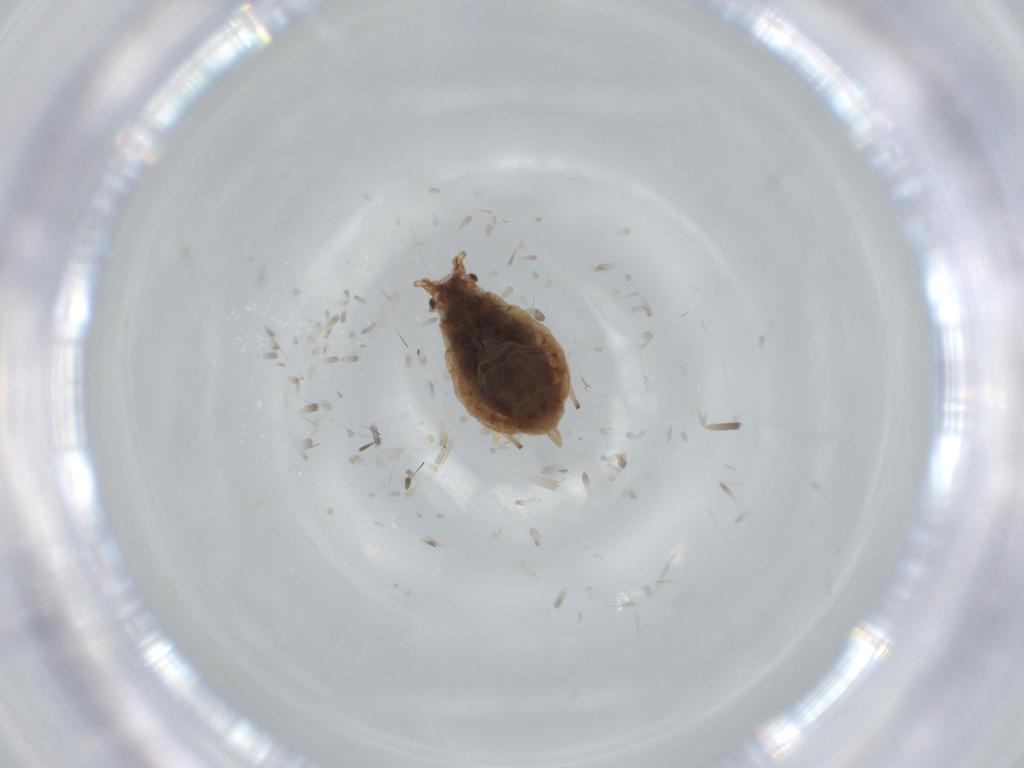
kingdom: Animalia
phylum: Arthropoda
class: Insecta
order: Hemiptera
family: Aphididae
